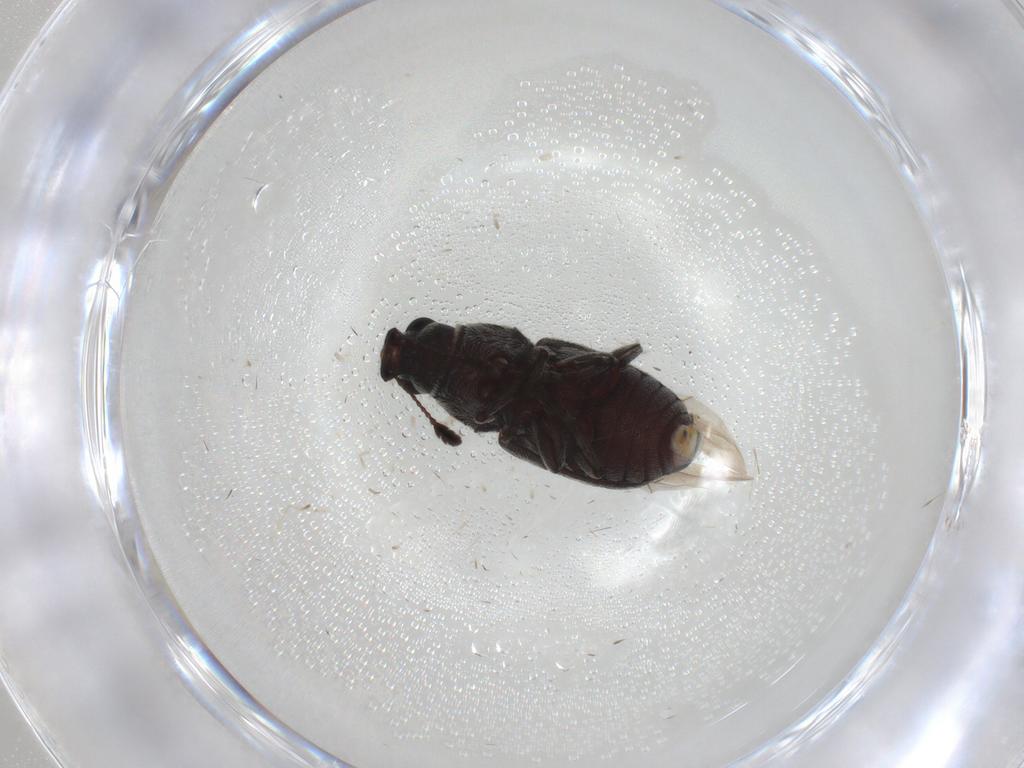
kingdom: Animalia
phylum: Arthropoda
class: Insecta
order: Coleoptera
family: Anthribidae
